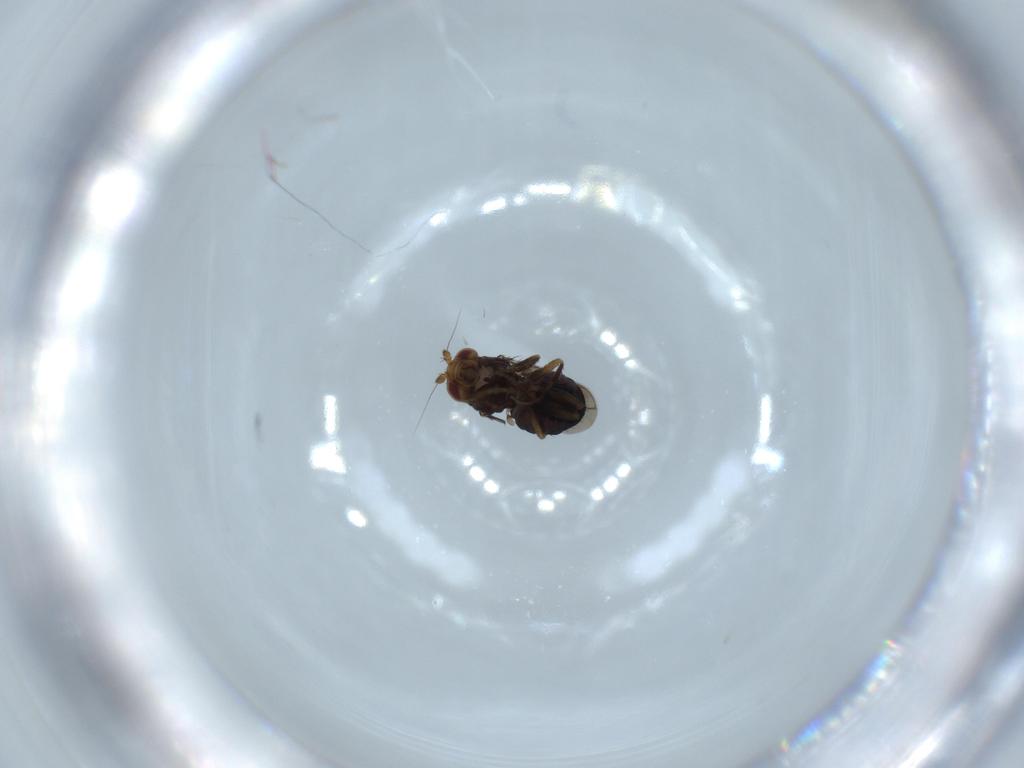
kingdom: Animalia
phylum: Arthropoda
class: Insecta
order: Diptera
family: Sphaeroceridae
